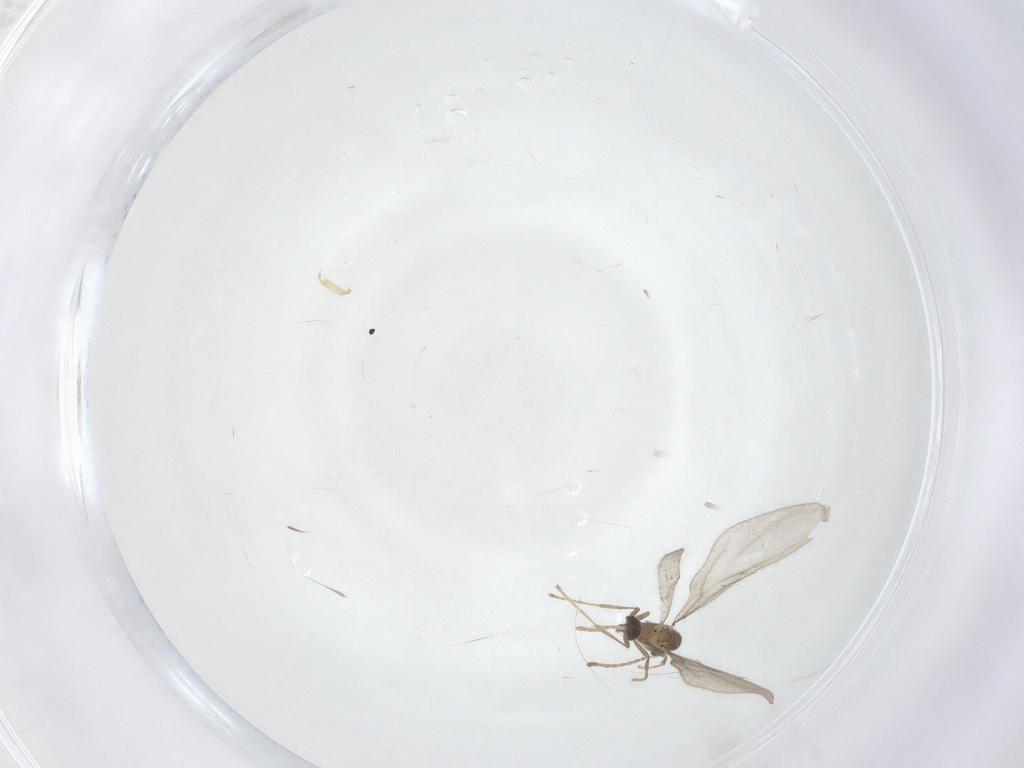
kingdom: Animalia
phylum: Arthropoda
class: Insecta
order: Hymenoptera
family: Formicidae
